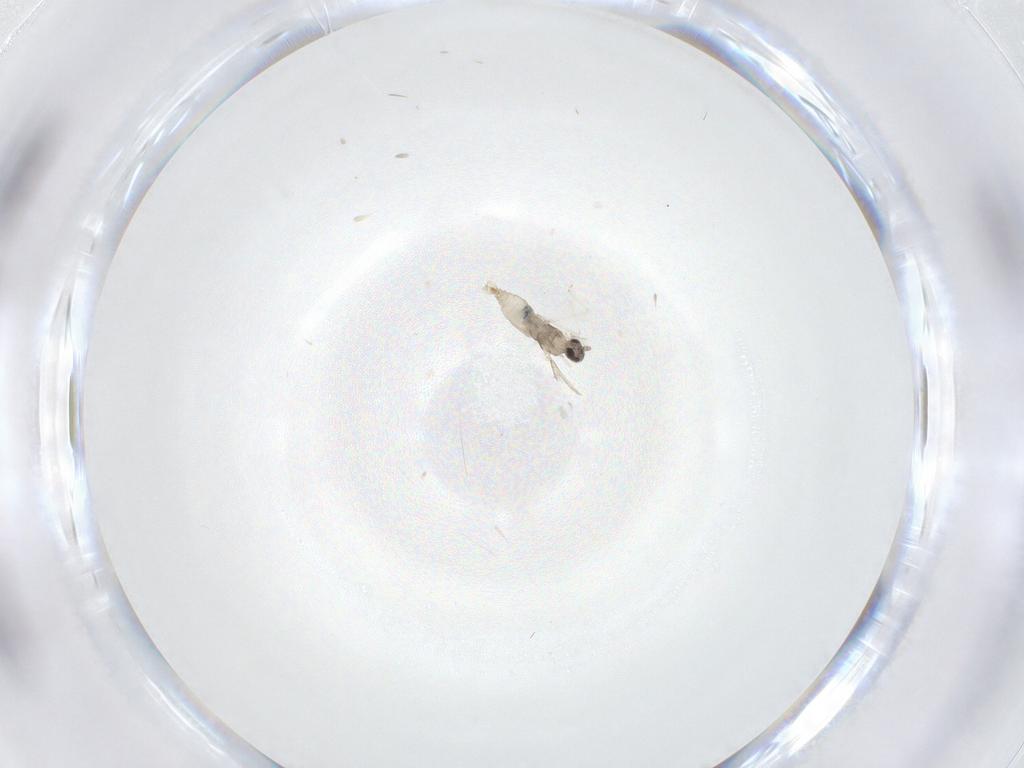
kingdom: Animalia
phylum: Arthropoda
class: Insecta
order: Diptera
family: Cecidomyiidae
